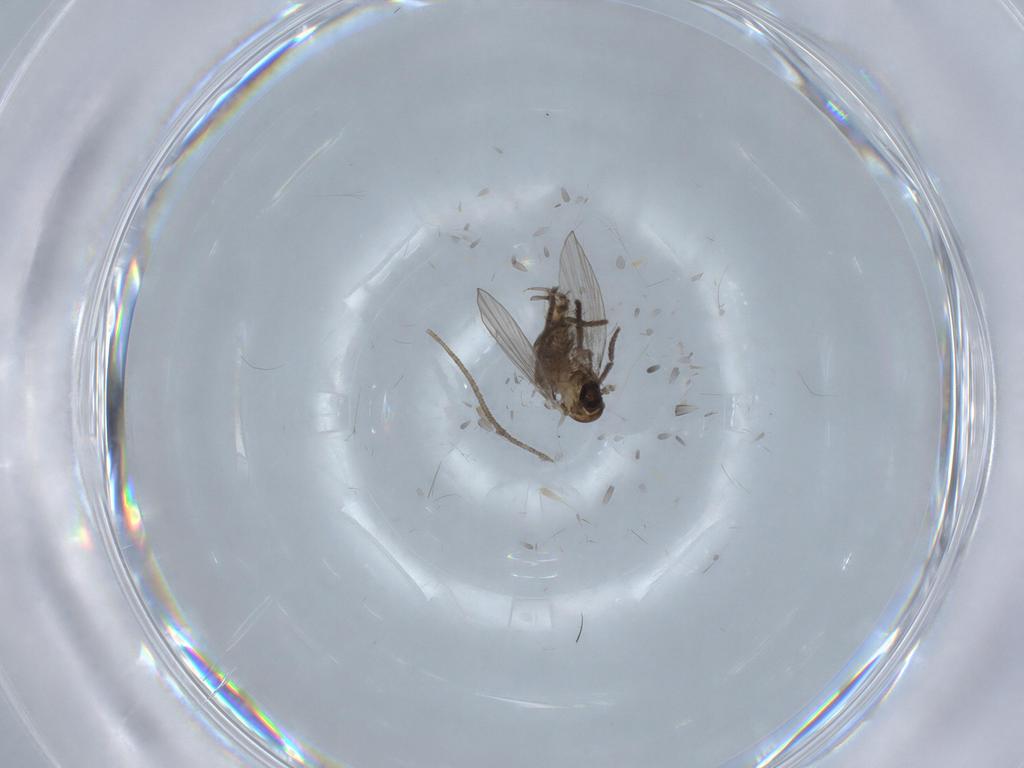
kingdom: Animalia
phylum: Arthropoda
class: Insecta
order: Diptera
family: Psychodidae
